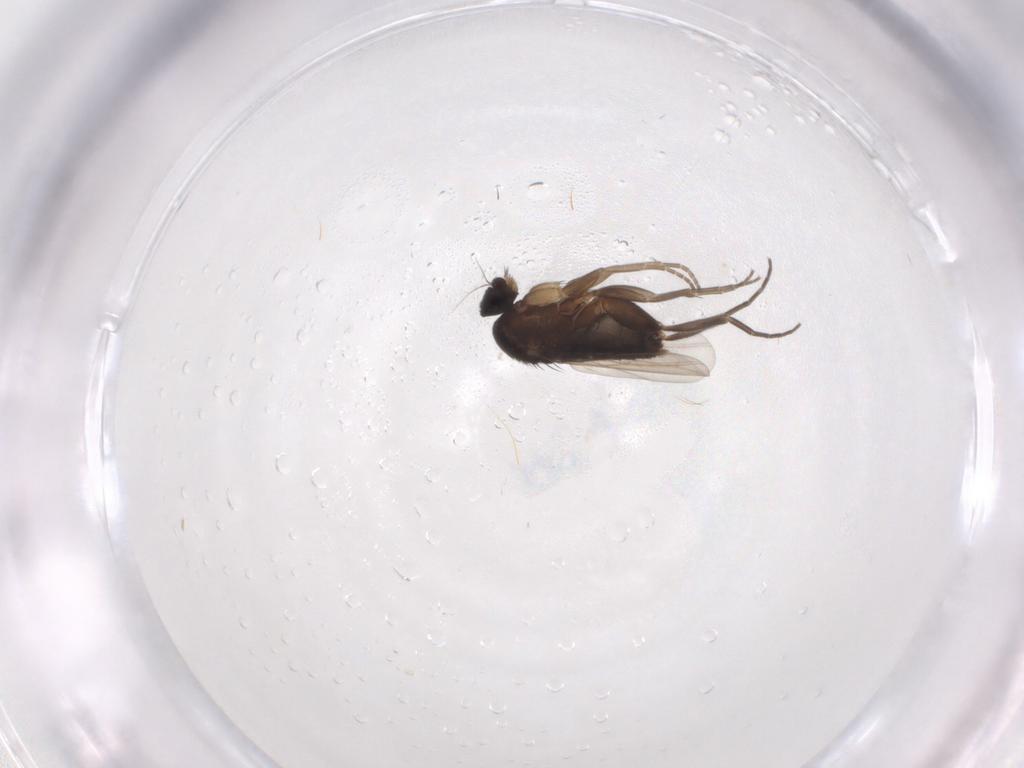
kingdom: Animalia
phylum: Arthropoda
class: Insecta
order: Diptera
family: Phoridae
